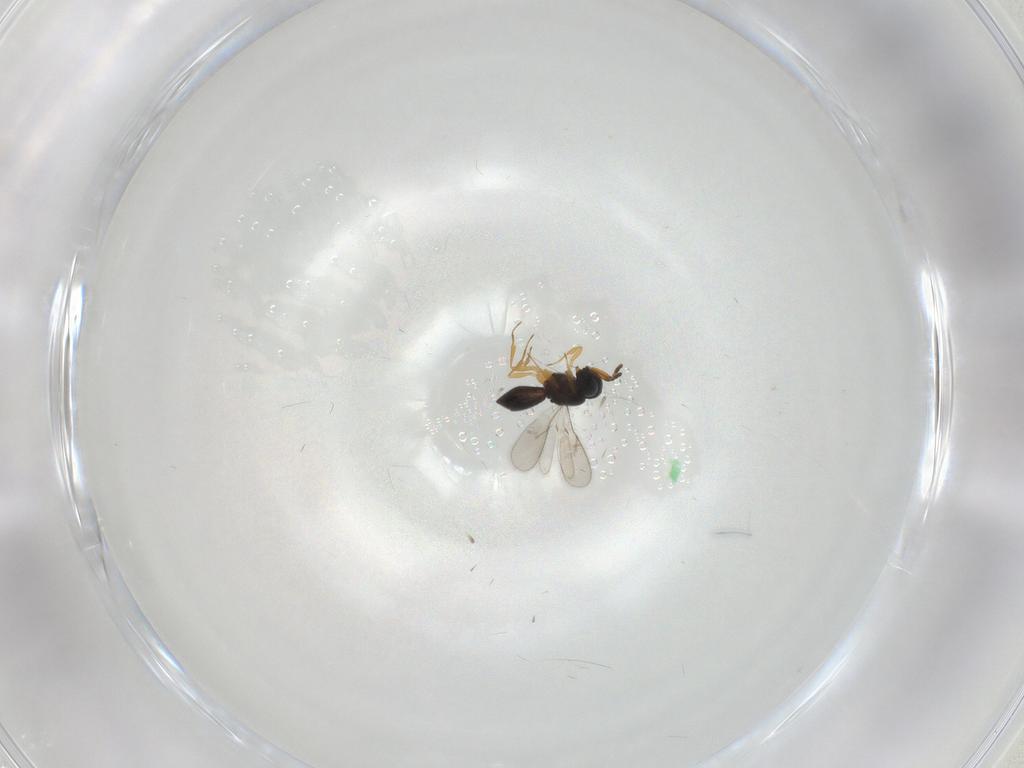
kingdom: Animalia
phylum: Arthropoda
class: Insecta
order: Hymenoptera
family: Scelionidae
